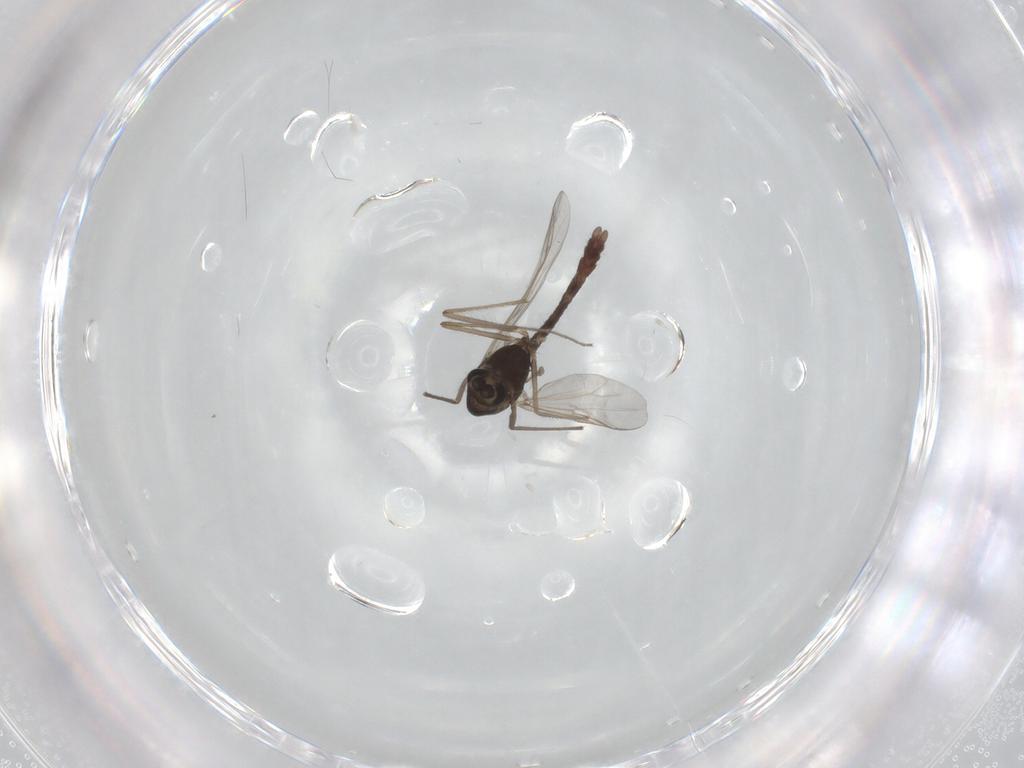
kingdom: Animalia
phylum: Arthropoda
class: Insecta
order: Diptera
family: Chironomidae
